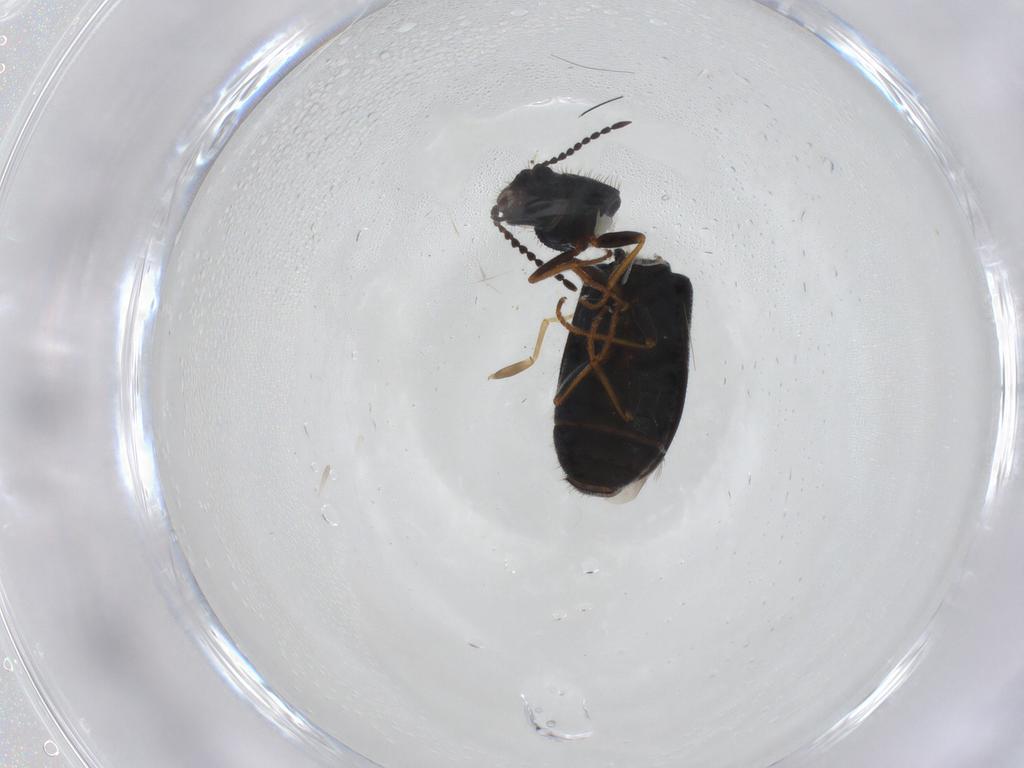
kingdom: Animalia
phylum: Arthropoda
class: Insecta
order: Coleoptera
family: Melyridae
